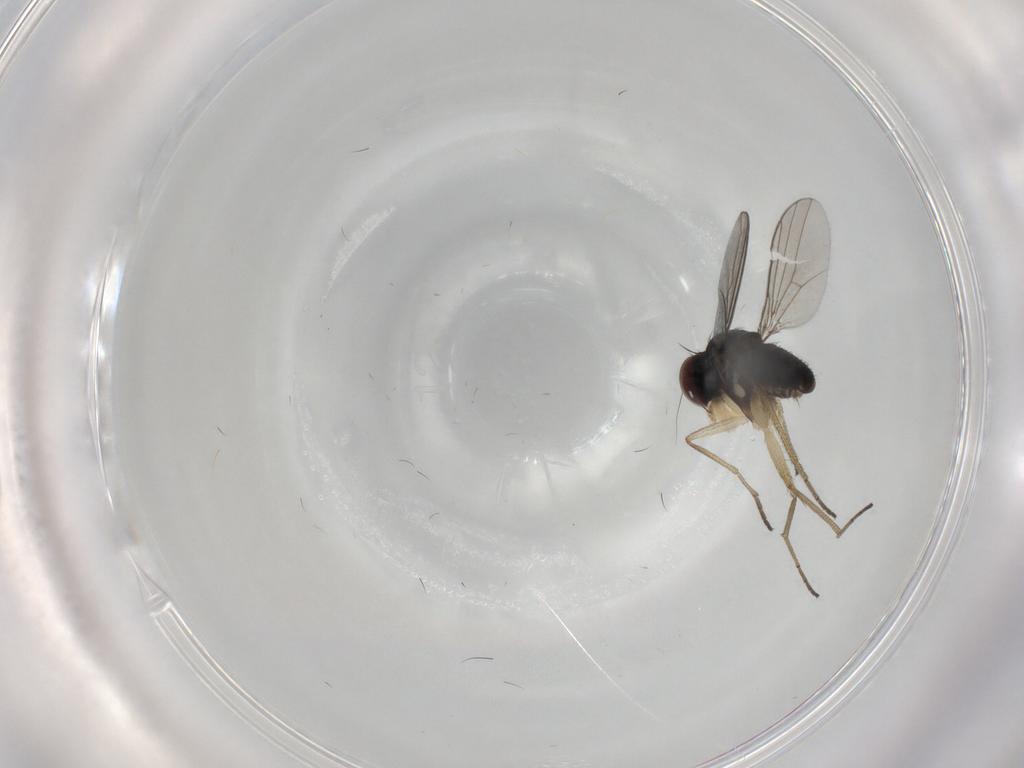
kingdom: Animalia
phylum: Arthropoda
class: Insecta
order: Diptera
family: Dolichopodidae
